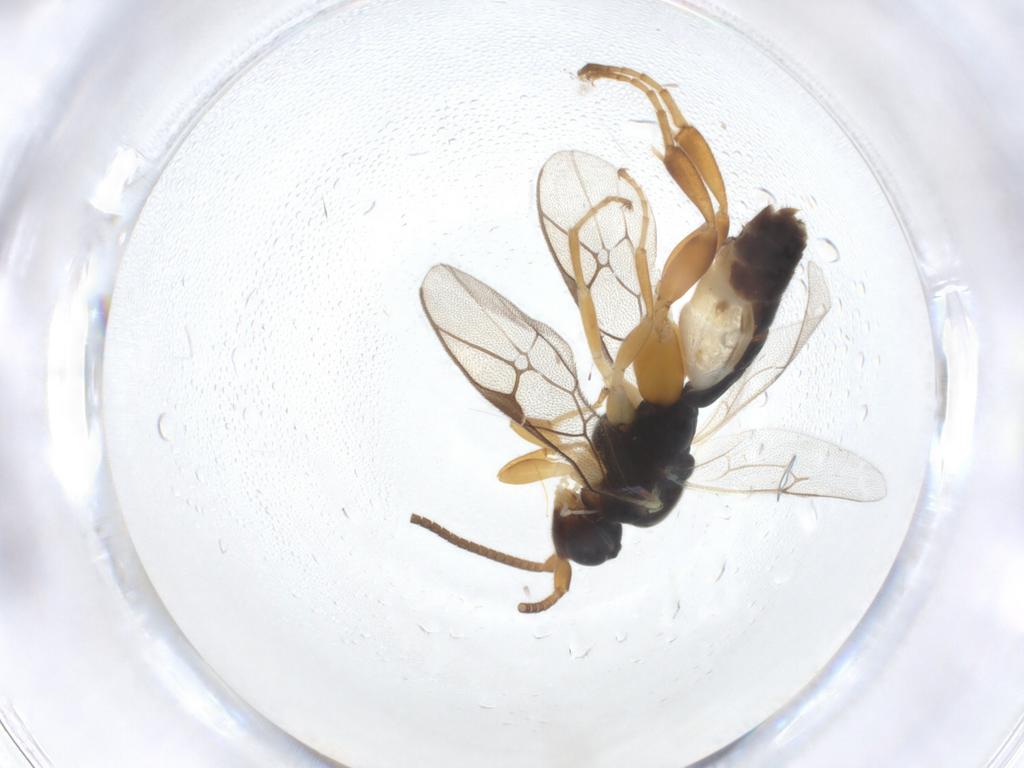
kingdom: Animalia
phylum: Arthropoda
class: Insecta
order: Hymenoptera
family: Ichneumonidae
